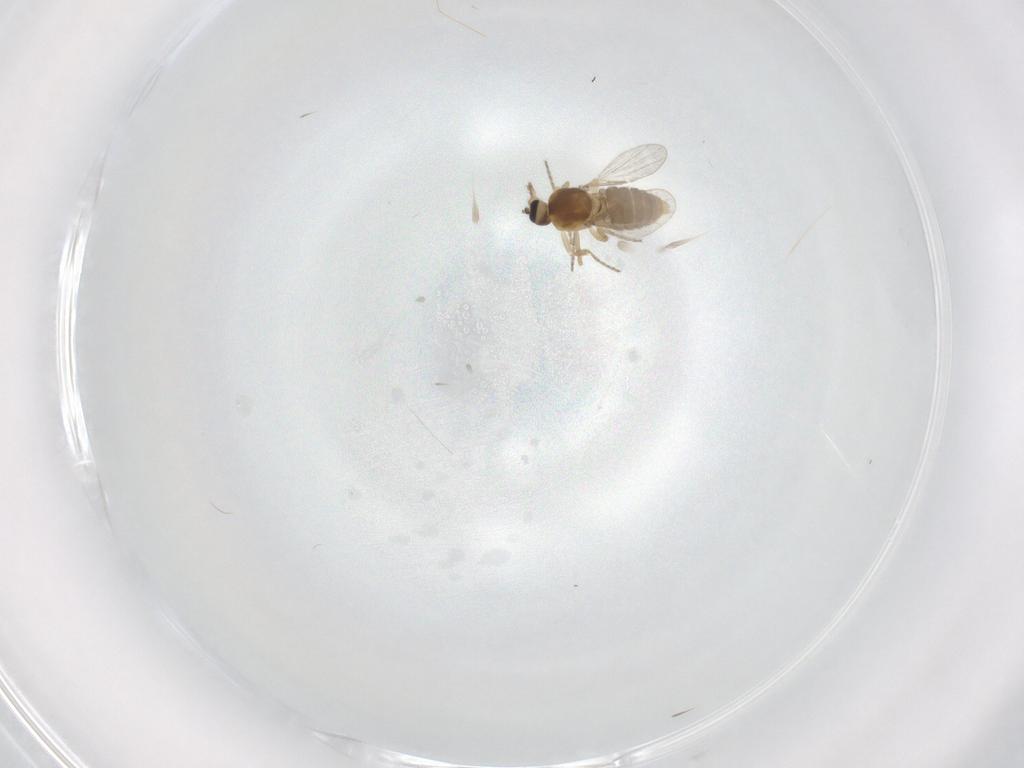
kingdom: Animalia
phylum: Arthropoda
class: Insecta
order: Diptera
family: Ceratopogonidae
